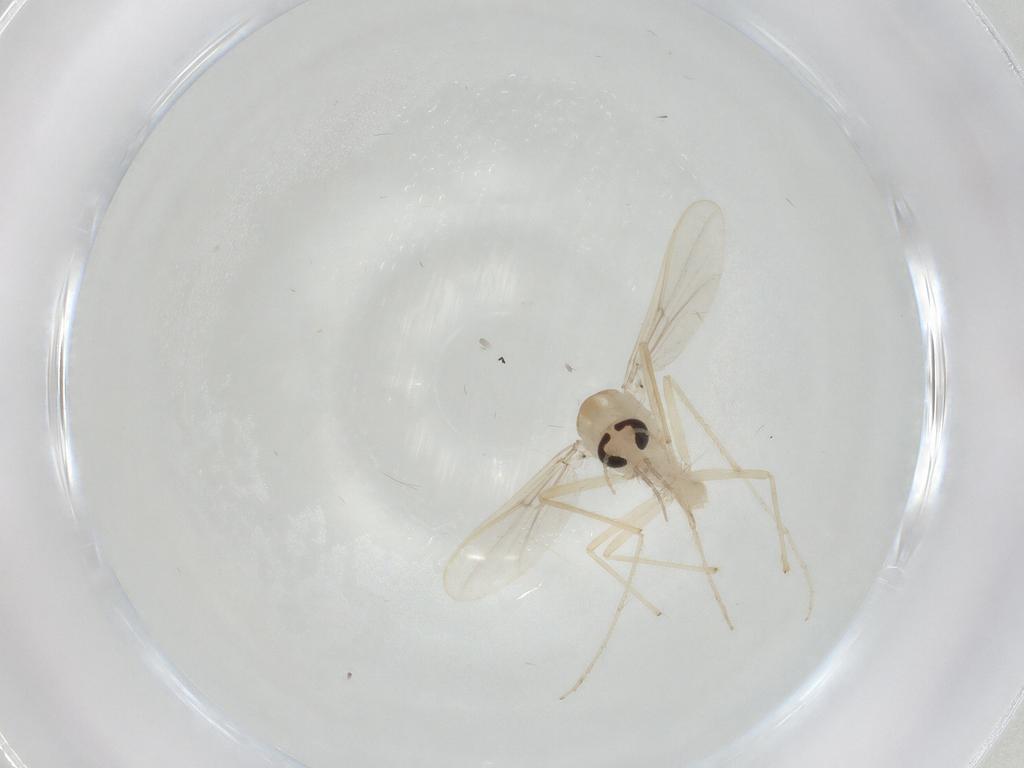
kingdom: Animalia
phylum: Arthropoda
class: Insecta
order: Diptera
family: Chironomidae
